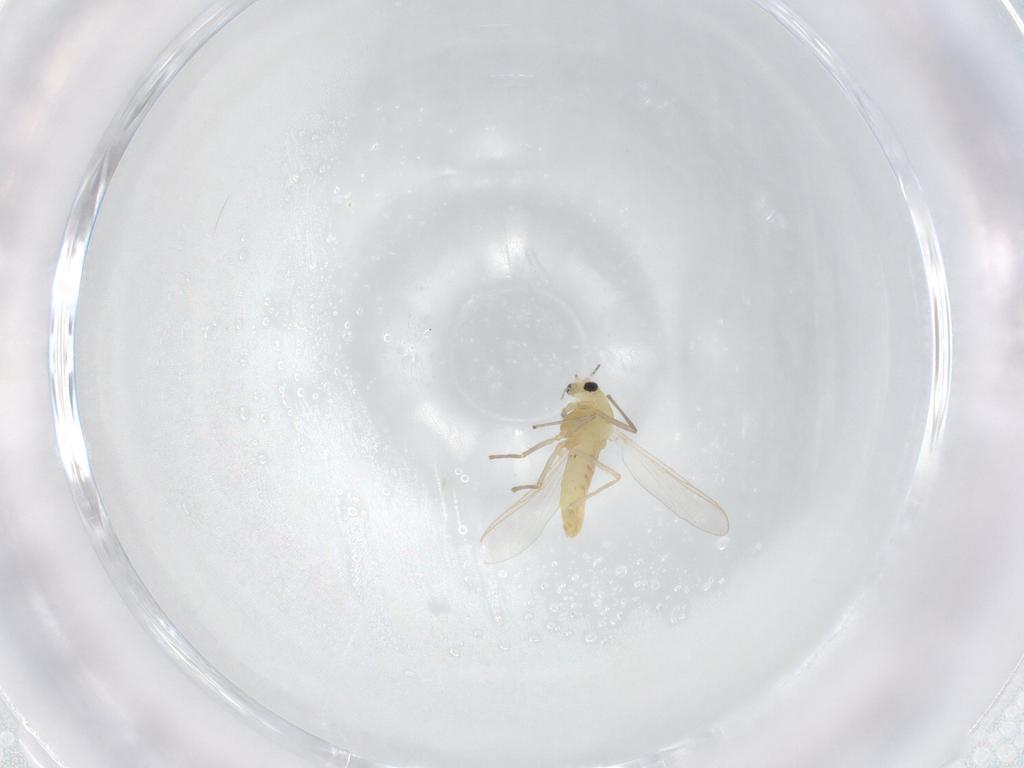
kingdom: Animalia
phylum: Arthropoda
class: Insecta
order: Diptera
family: Chironomidae
